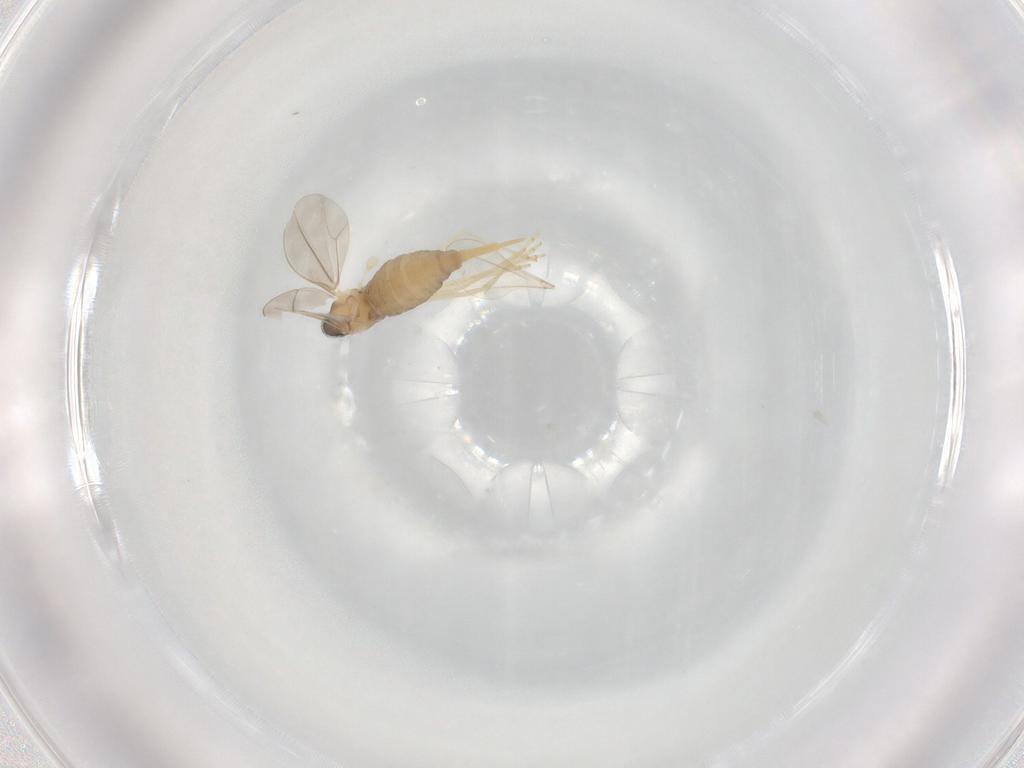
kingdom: Animalia
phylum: Arthropoda
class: Insecta
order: Diptera
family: Cecidomyiidae
